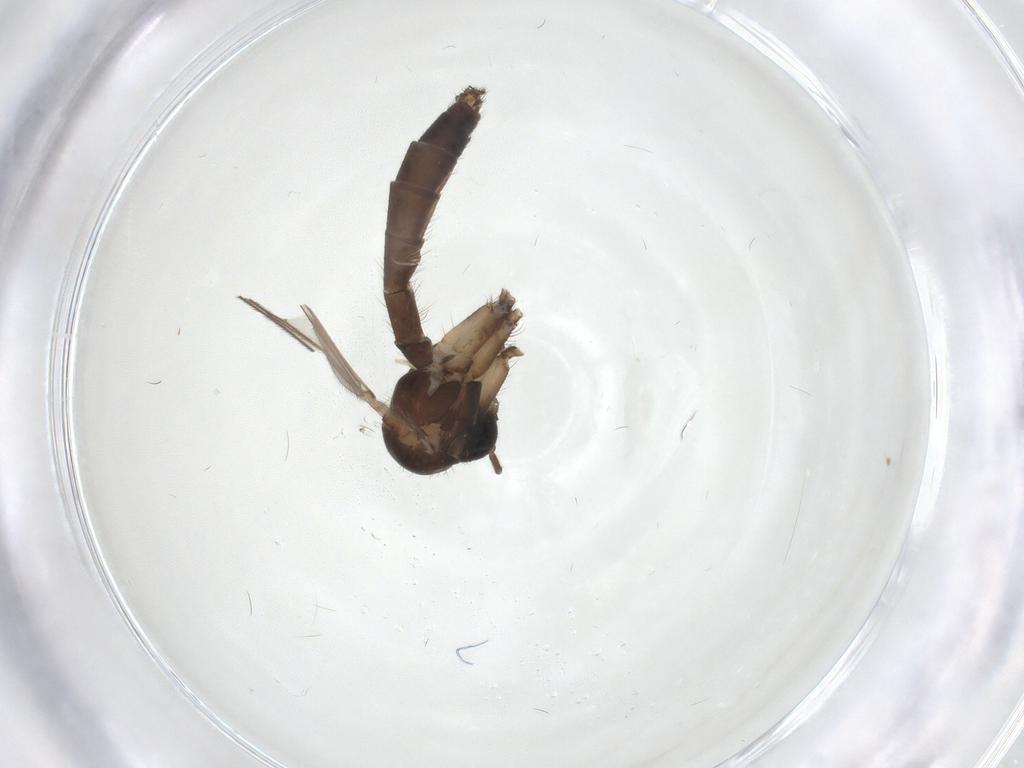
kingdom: Animalia
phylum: Arthropoda
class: Insecta
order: Diptera
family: Mycetophilidae
